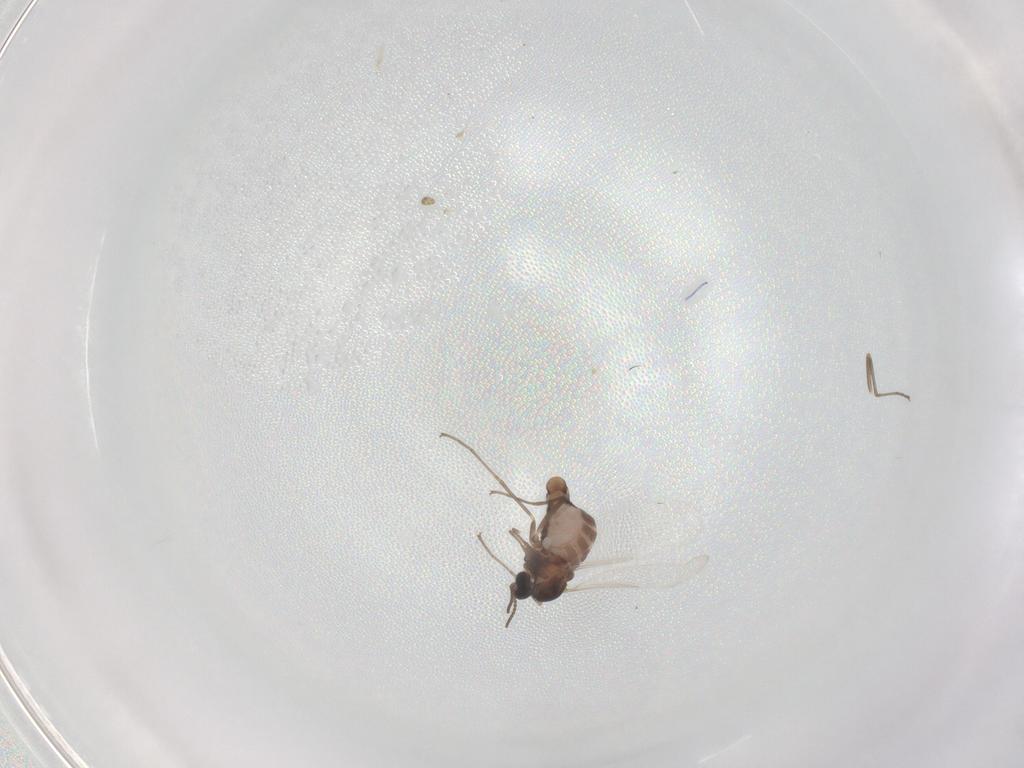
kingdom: Animalia
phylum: Arthropoda
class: Insecta
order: Diptera
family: Cecidomyiidae
